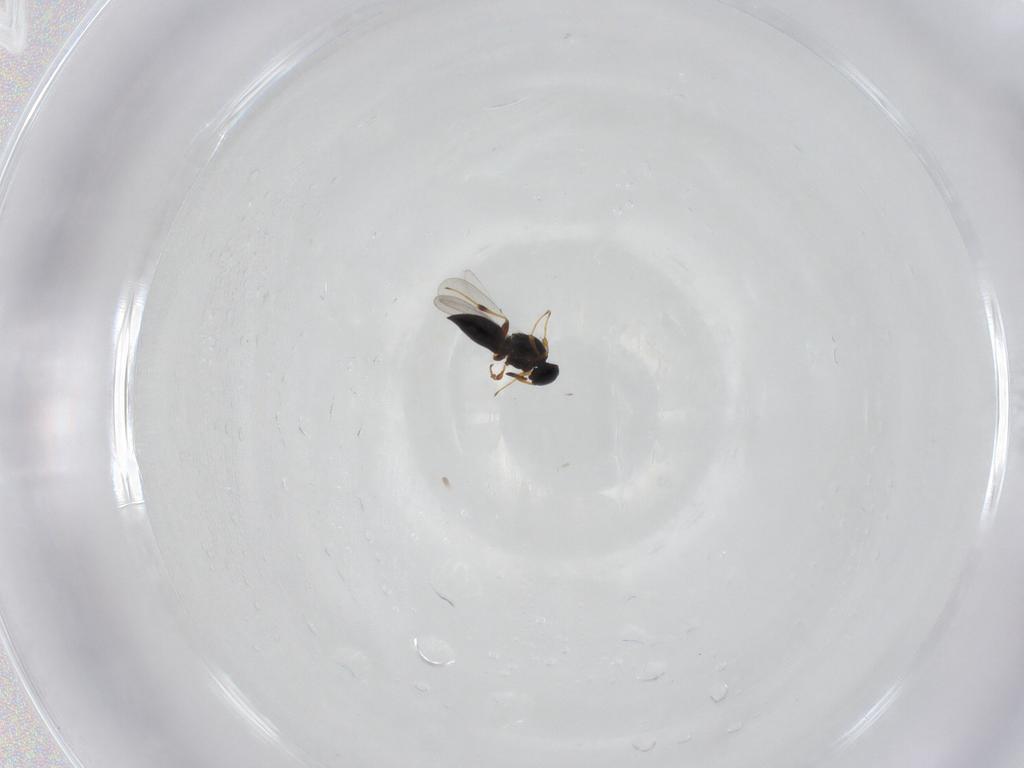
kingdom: Animalia
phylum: Arthropoda
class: Insecta
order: Hymenoptera
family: Platygastridae
